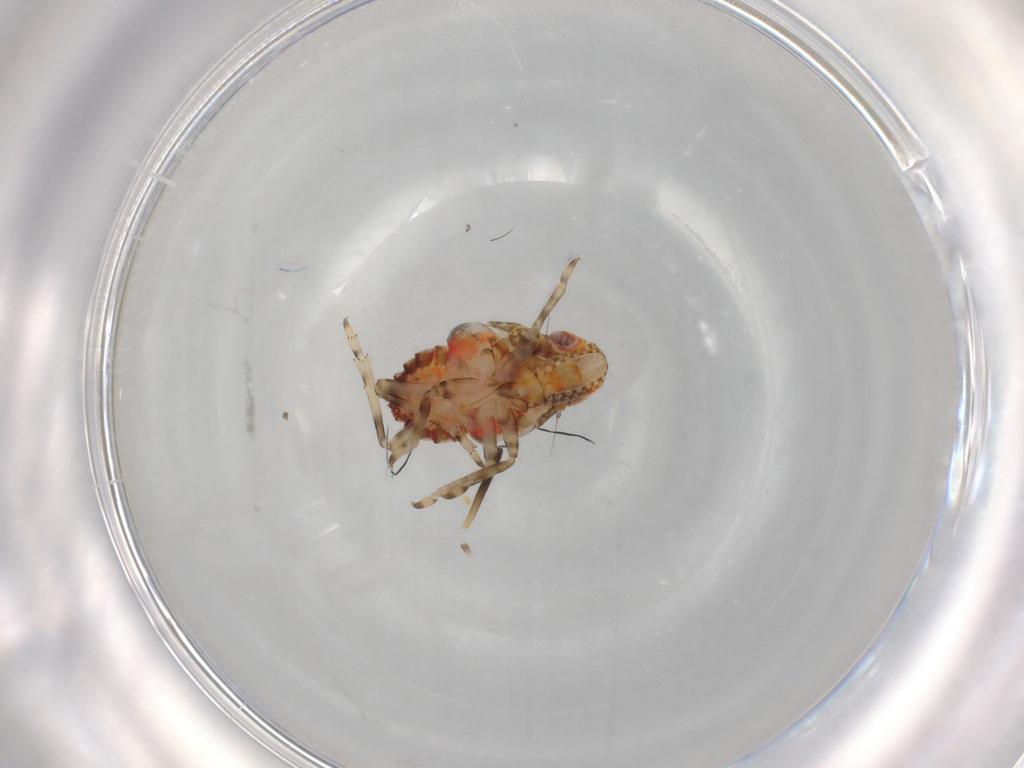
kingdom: Animalia
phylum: Arthropoda
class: Insecta
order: Hemiptera
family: Tropiduchidae
